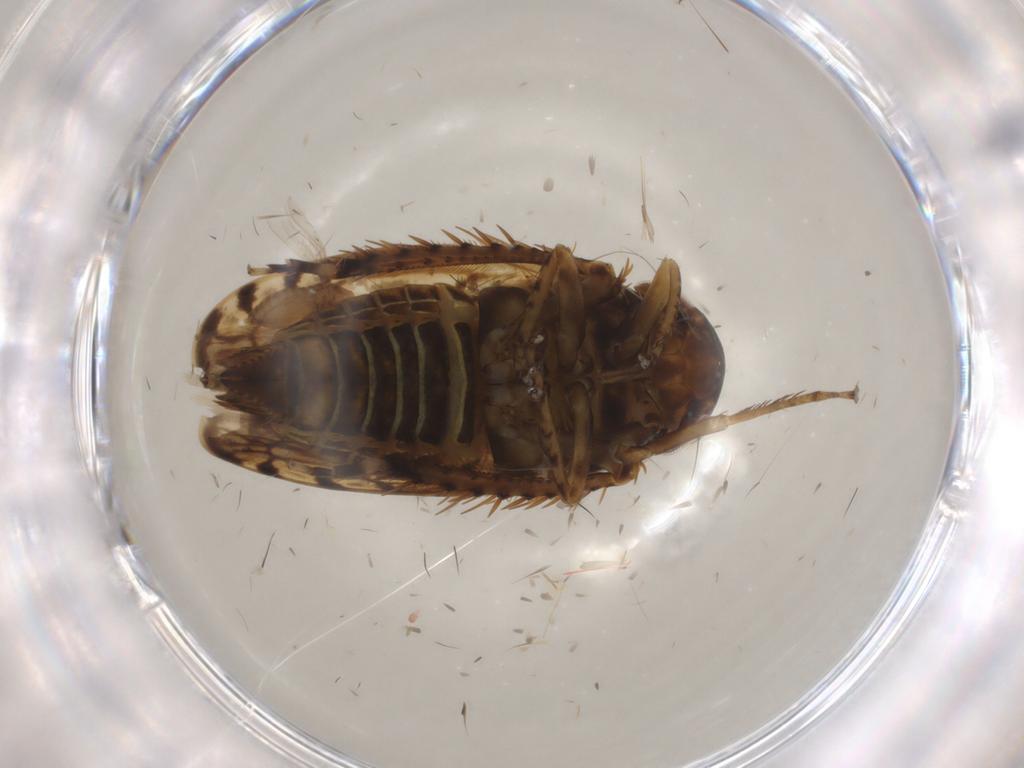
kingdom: Animalia
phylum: Arthropoda
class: Insecta
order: Hemiptera
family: Cicadellidae
